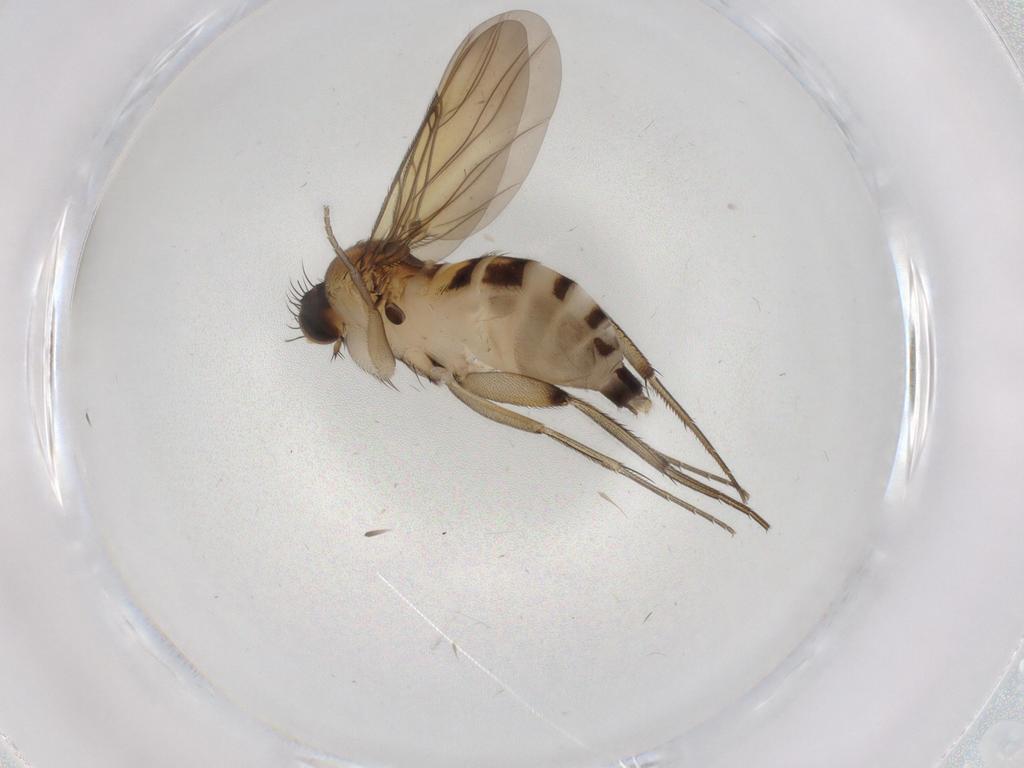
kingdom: Animalia
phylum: Arthropoda
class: Insecta
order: Diptera
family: Phoridae
